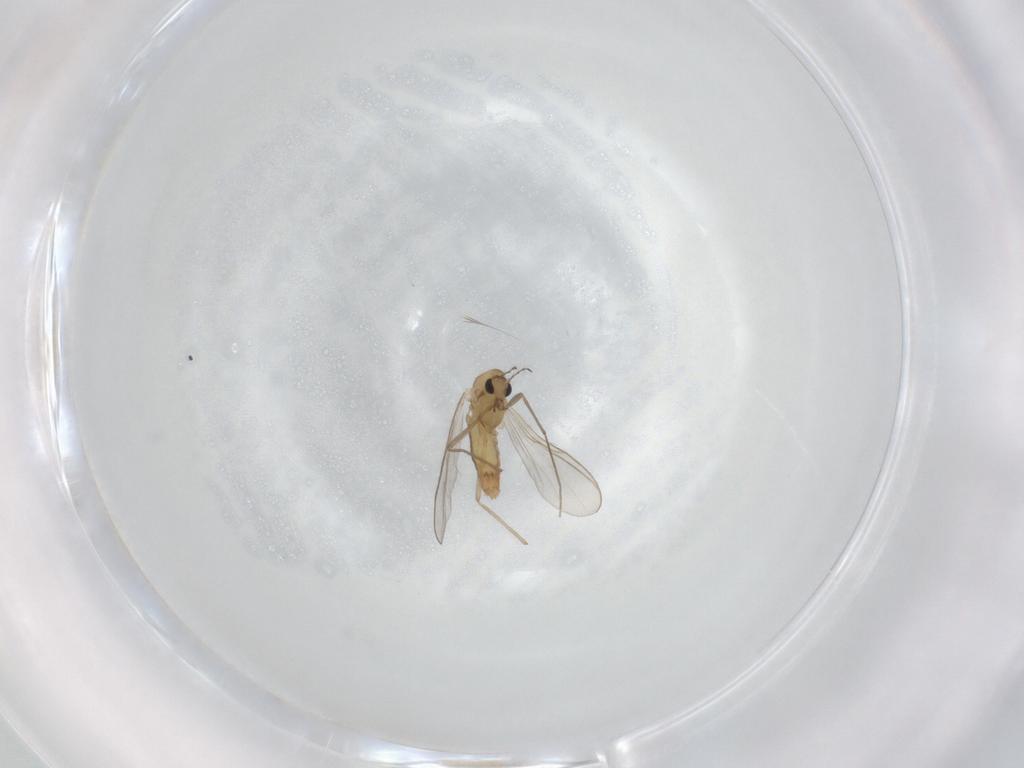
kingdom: Animalia
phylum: Arthropoda
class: Insecta
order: Diptera
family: Chironomidae
